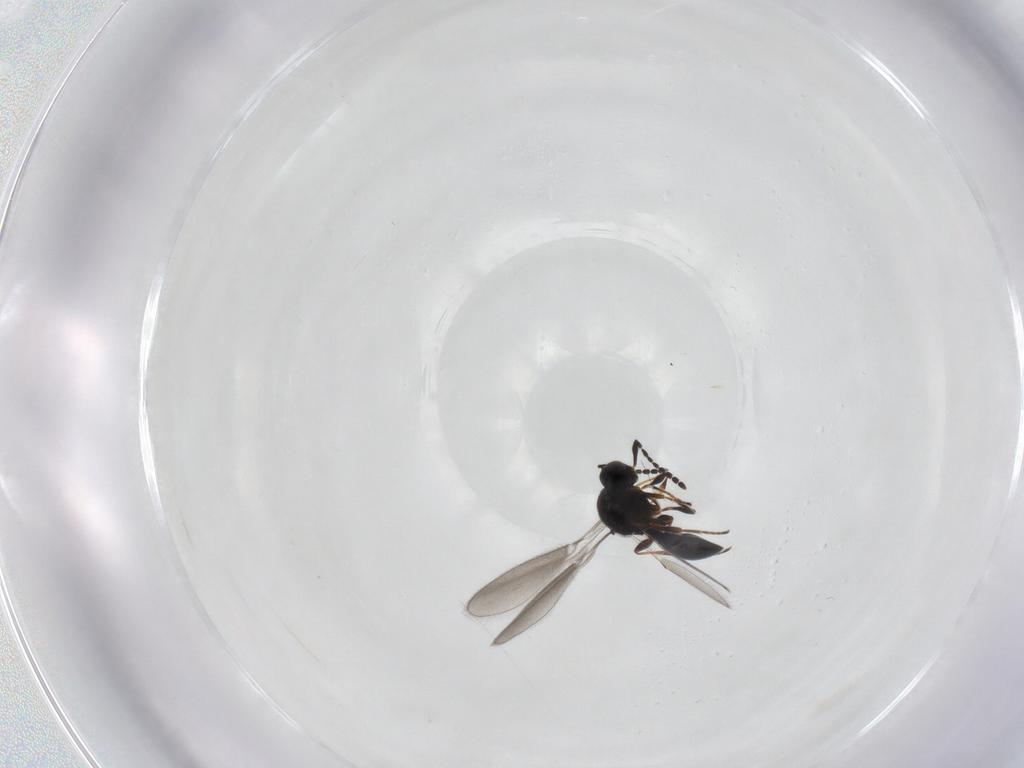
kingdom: Animalia
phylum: Arthropoda
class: Insecta
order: Hymenoptera
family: Platygastridae
